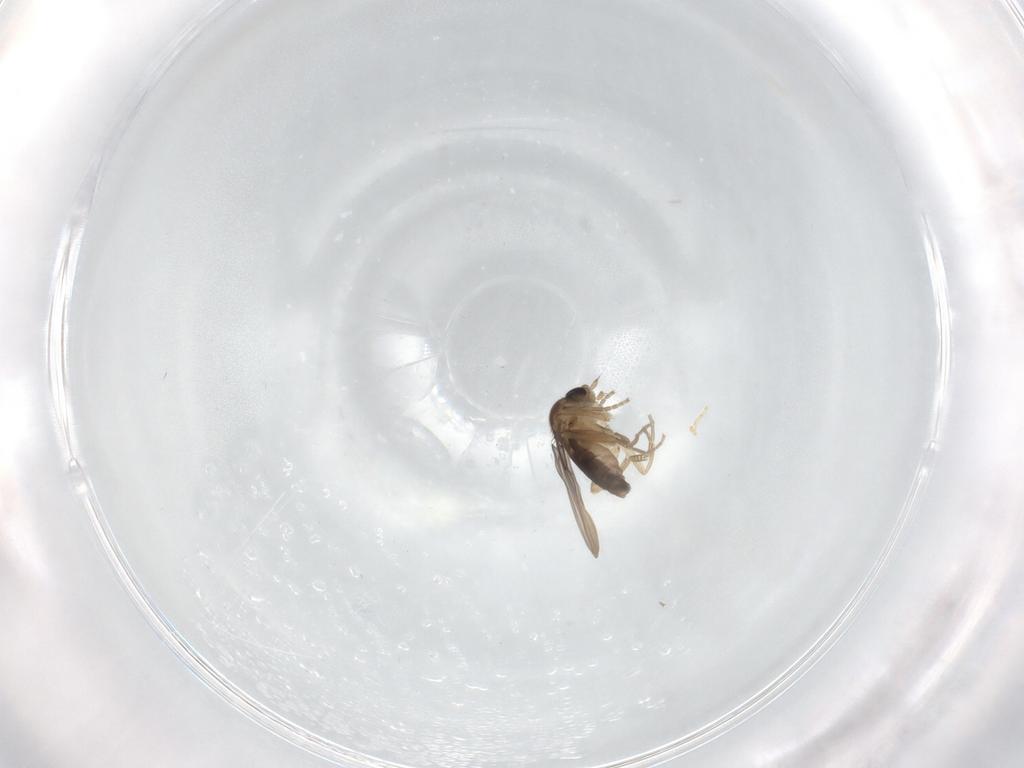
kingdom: Animalia
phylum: Arthropoda
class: Insecta
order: Diptera
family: Phoridae
